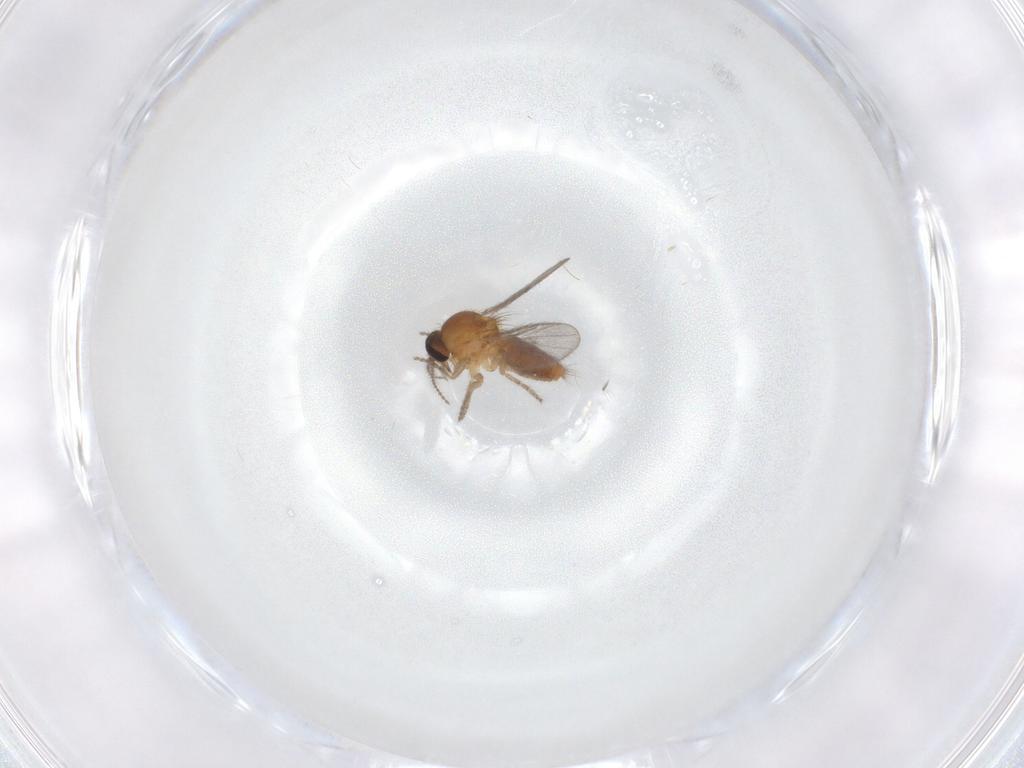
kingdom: Animalia
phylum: Arthropoda
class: Insecta
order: Diptera
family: Ceratopogonidae
